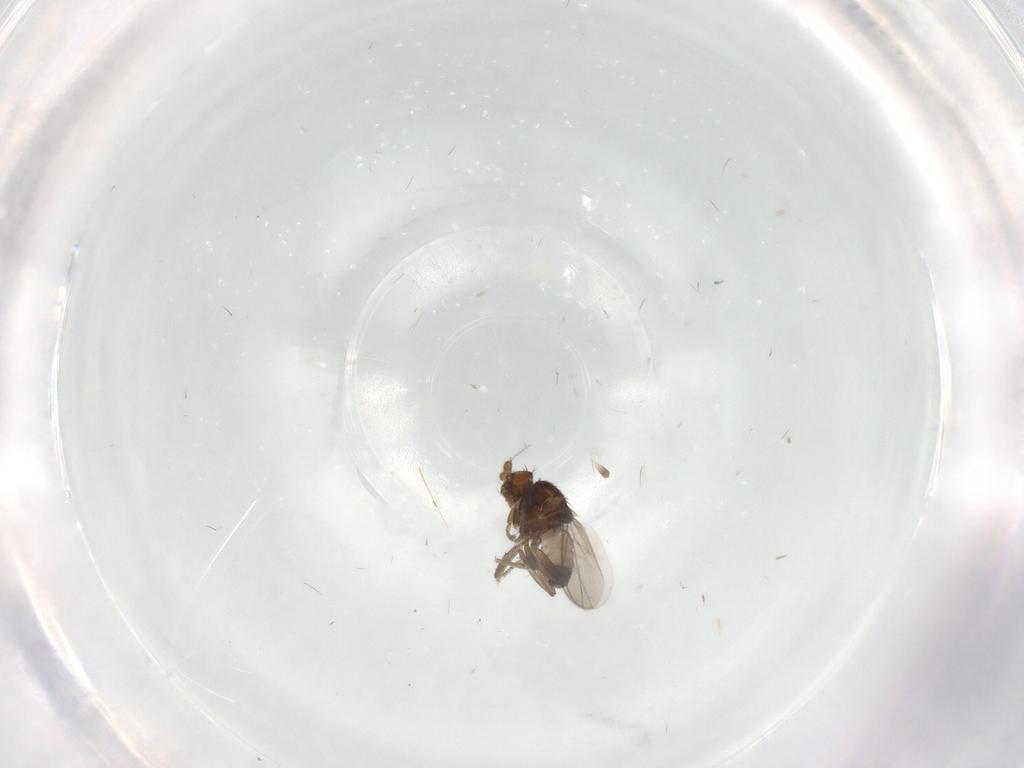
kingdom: Animalia
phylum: Arthropoda
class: Insecta
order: Diptera
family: Sphaeroceridae
